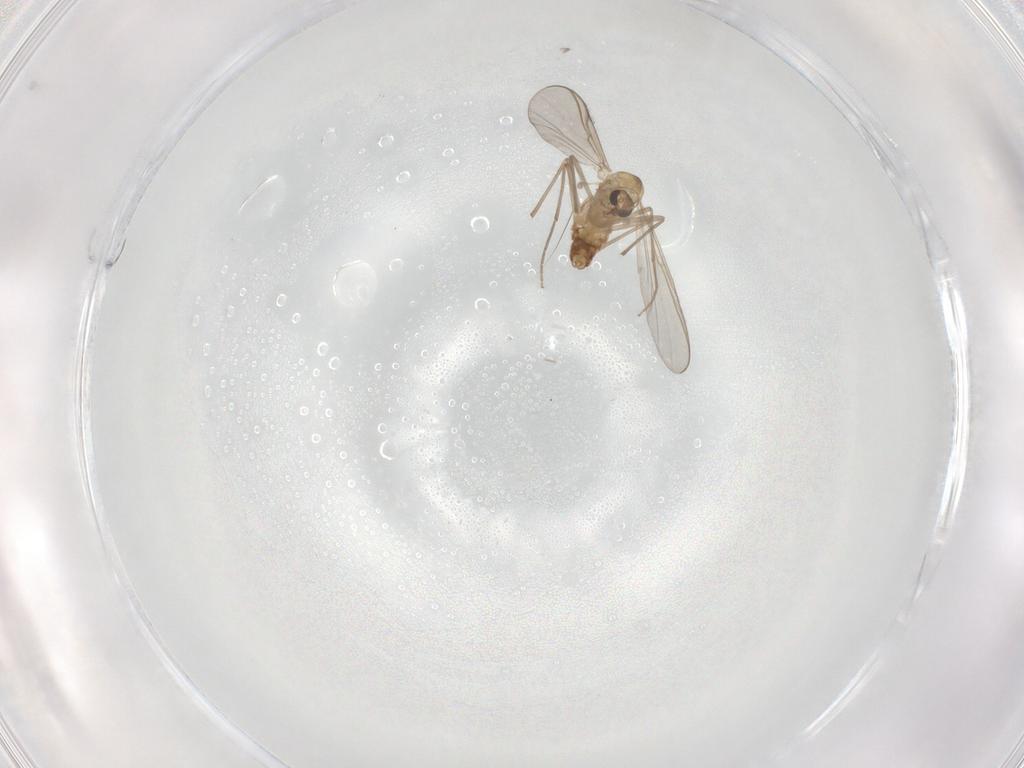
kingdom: Animalia
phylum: Arthropoda
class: Insecta
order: Diptera
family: Chironomidae
